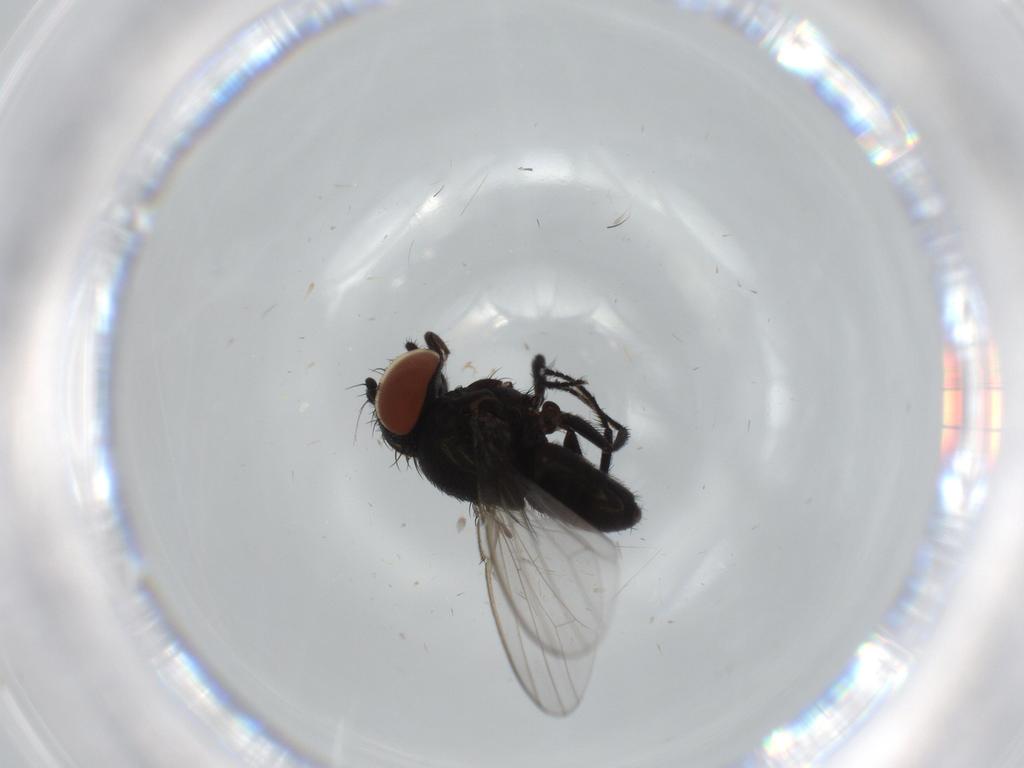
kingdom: Animalia
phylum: Arthropoda
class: Insecta
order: Diptera
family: Milichiidae
